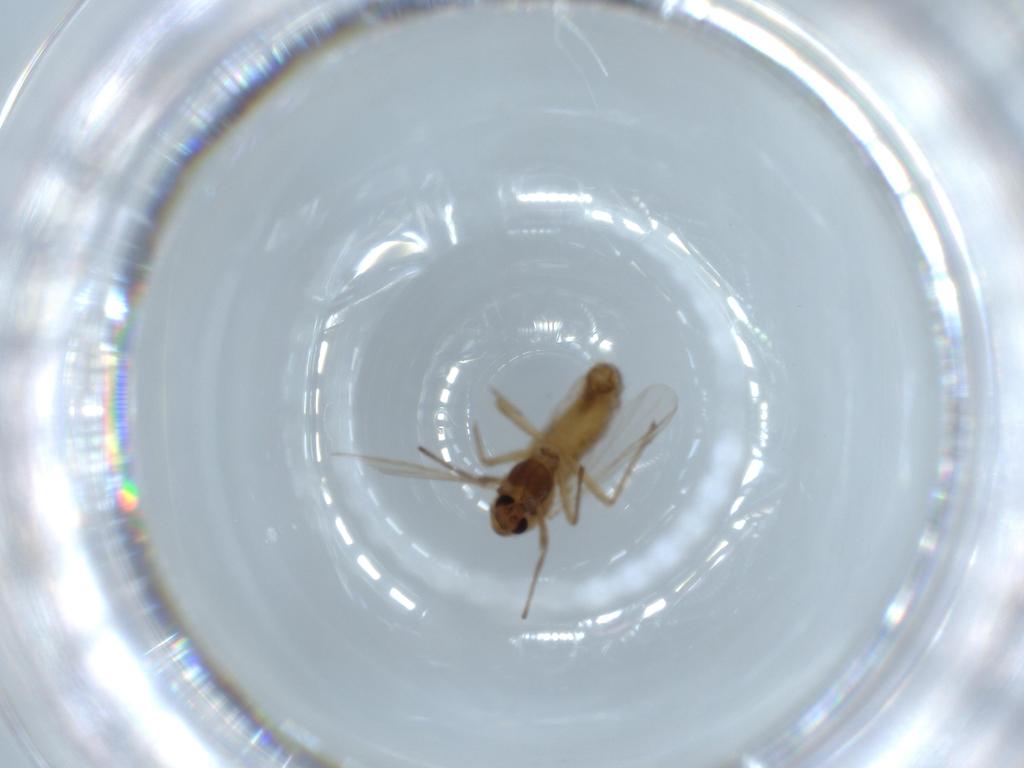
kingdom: Animalia
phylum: Arthropoda
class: Insecta
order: Diptera
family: Chironomidae
